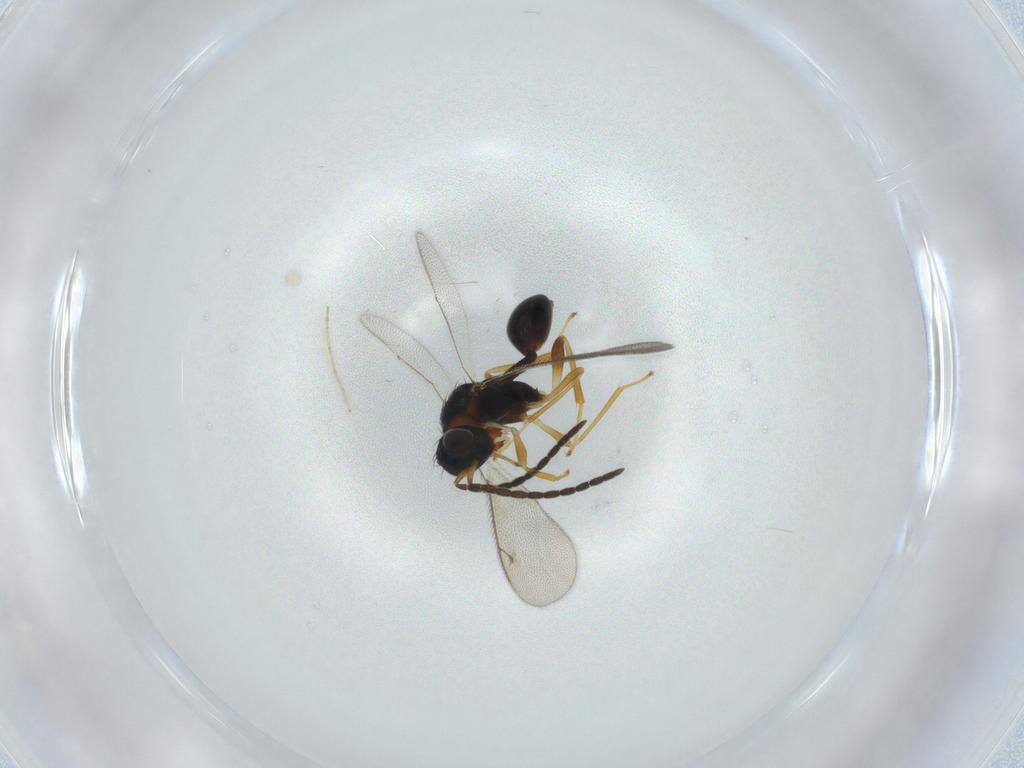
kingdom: Animalia
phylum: Arthropoda
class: Insecta
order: Hymenoptera
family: Diparidae
